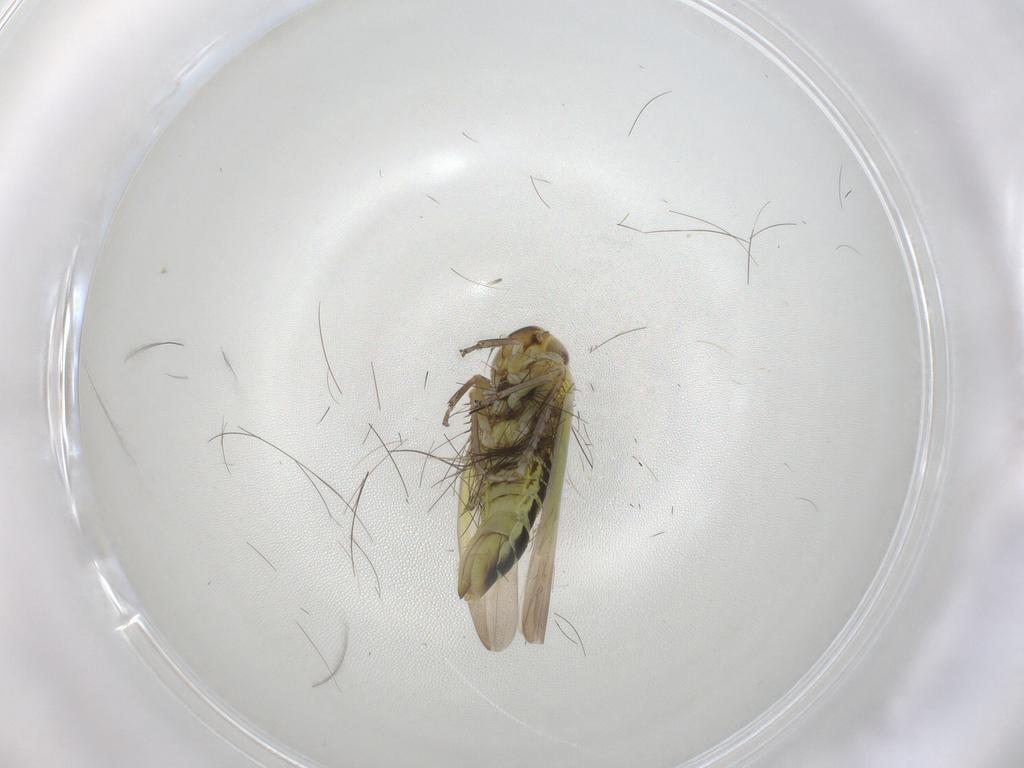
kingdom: Animalia
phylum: Arthropoda
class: Insecta
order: Hemiptera
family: Cicadellidae
